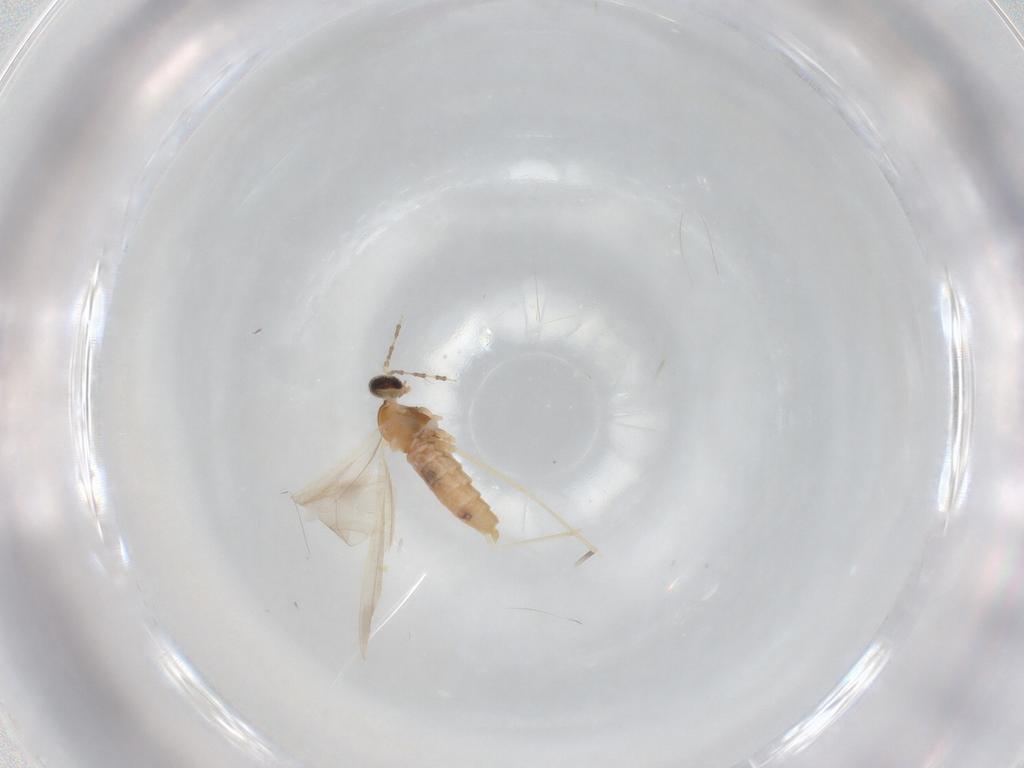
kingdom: Animalia
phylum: Arthropoda
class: Insecta
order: Diptera
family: Cecidomyiidae
